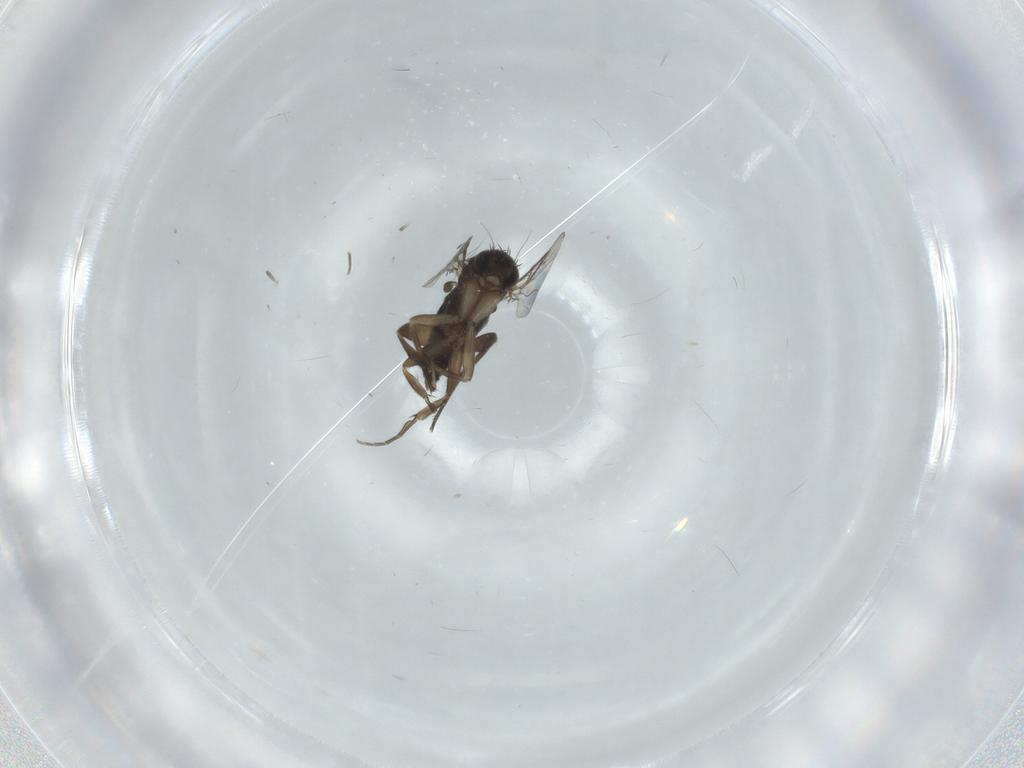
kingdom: Animalia
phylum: Arthropoda
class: Insecta
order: Diptera
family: Phoridae
